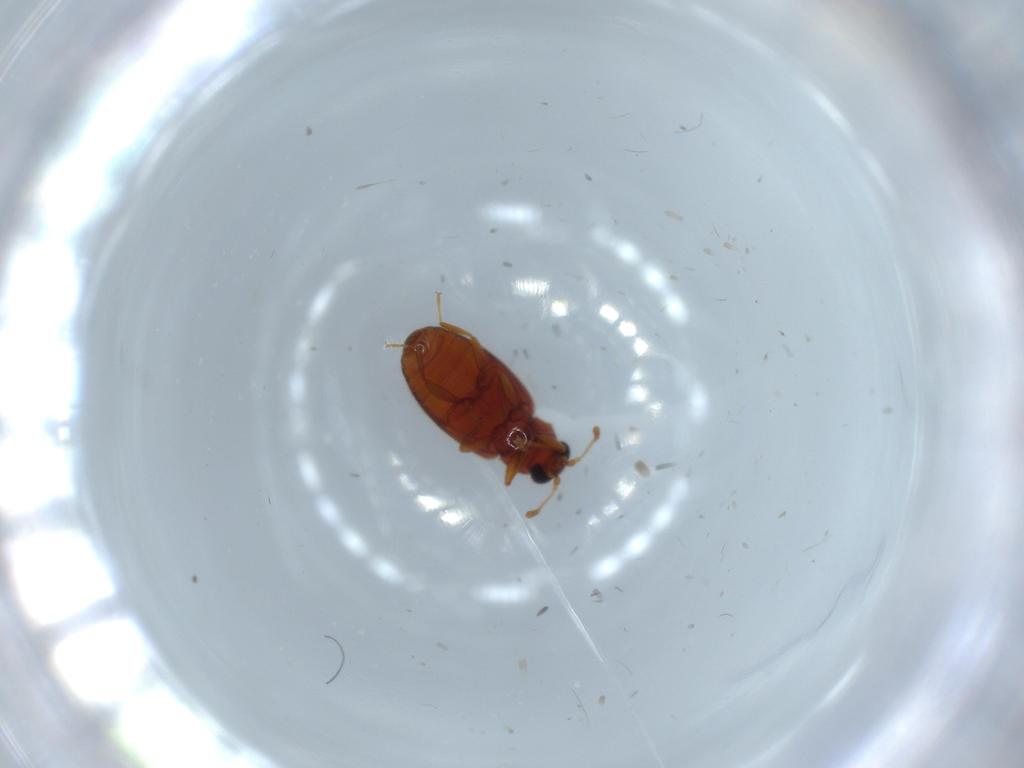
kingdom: Animalia
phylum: Arthropoda
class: Insecta
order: Coleoptera
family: Latridiidae
